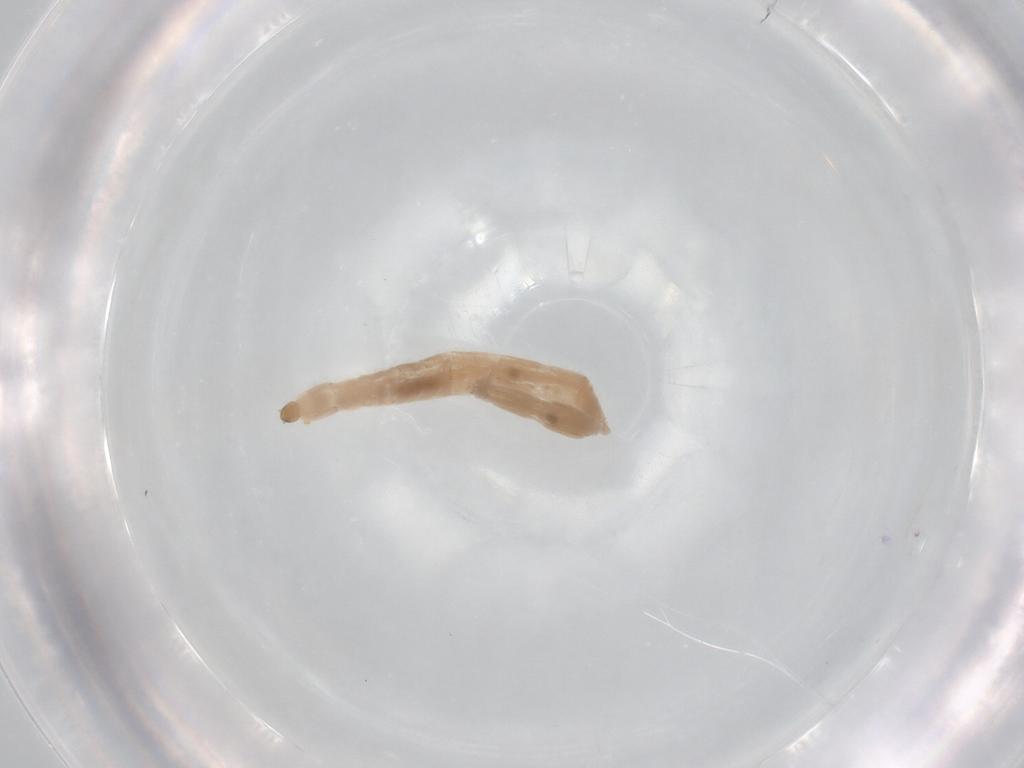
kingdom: Animalia
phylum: Arthropoda
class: Insecta
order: Diptera
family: Chironomidae
